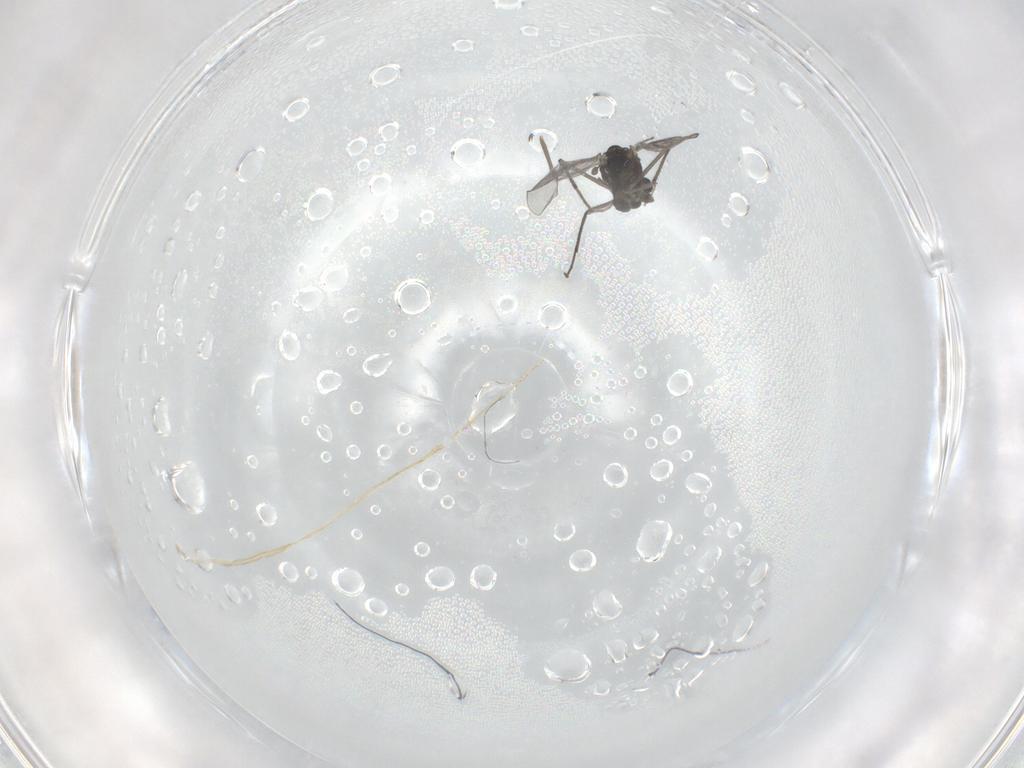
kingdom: Animalia
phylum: Arthropoda
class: Insecta
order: Diptera
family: Chironomidae
